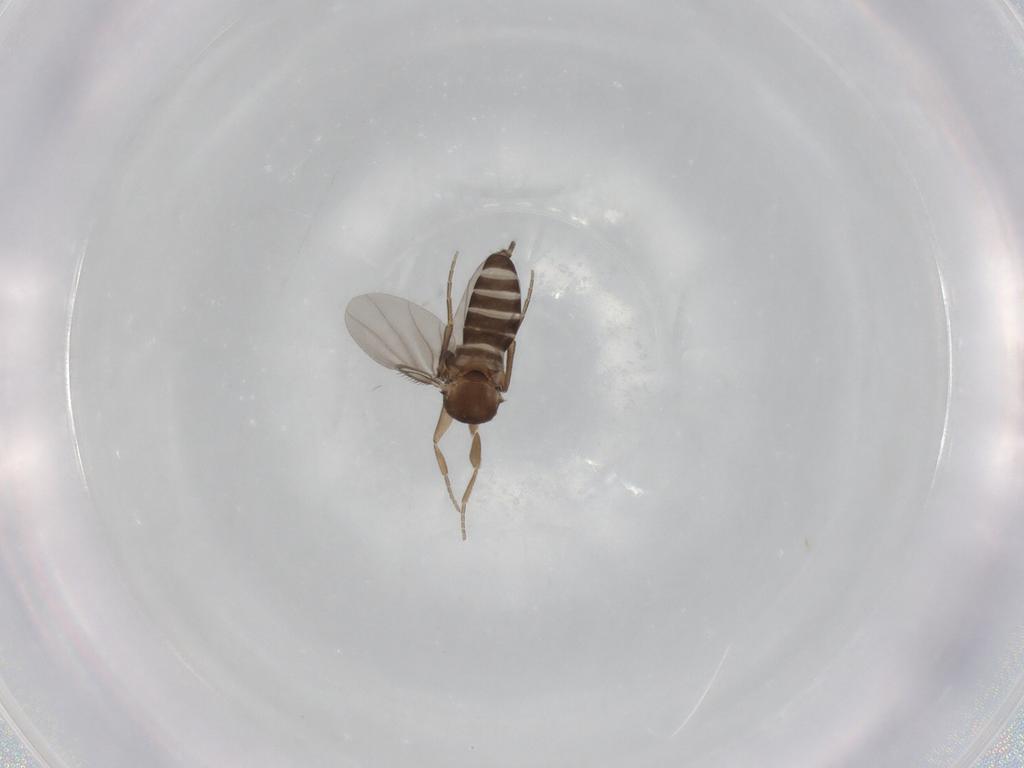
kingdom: Animalia
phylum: Arthropoda
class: Insecta
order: Diptera
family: Phoridae
